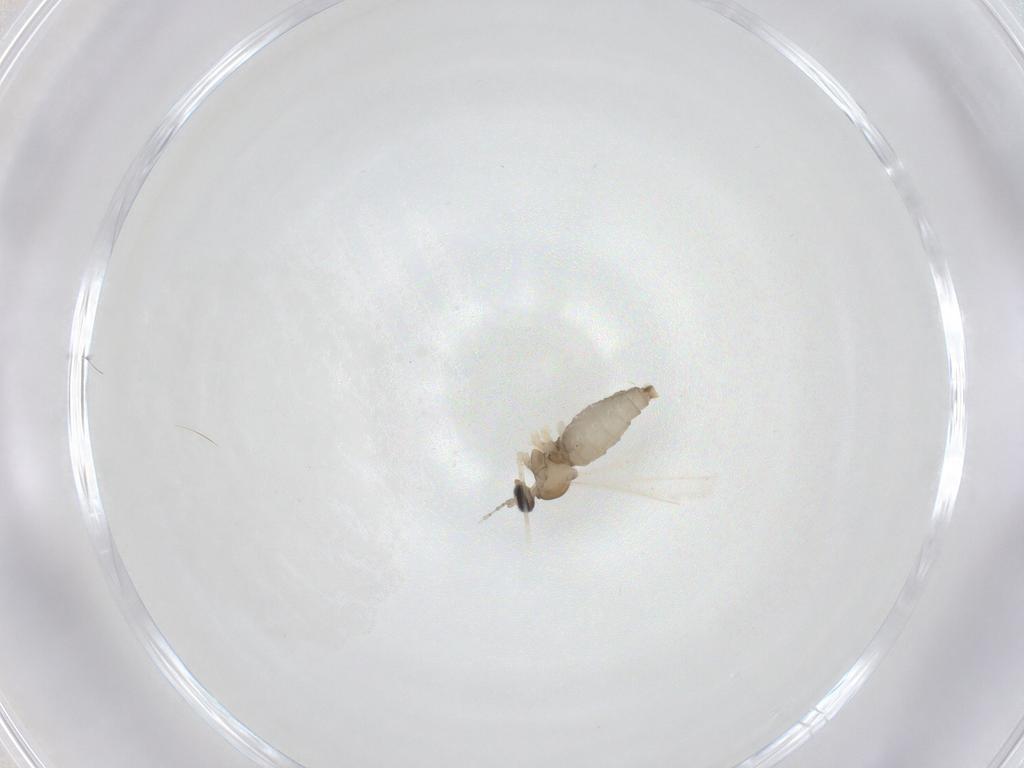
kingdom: Animalia
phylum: Arthropoda
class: Insecta
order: Diptera
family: Cecidomyiidae
